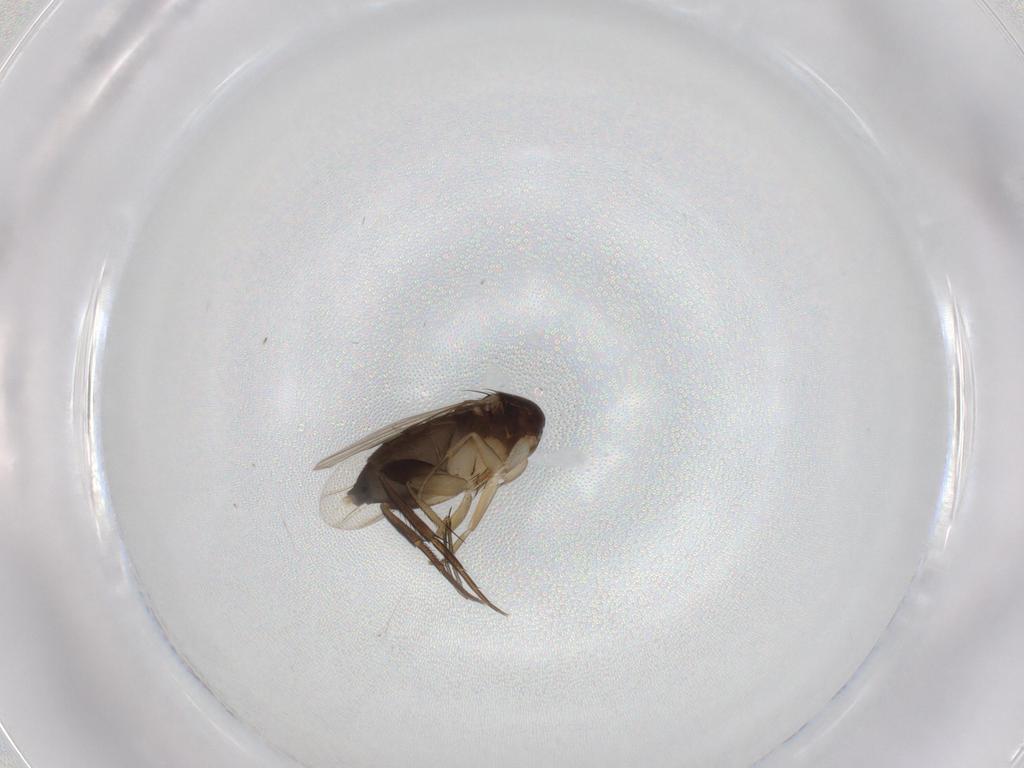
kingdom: Animalia
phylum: Arthropoda
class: Insecta
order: Diptera
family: Phoridae
